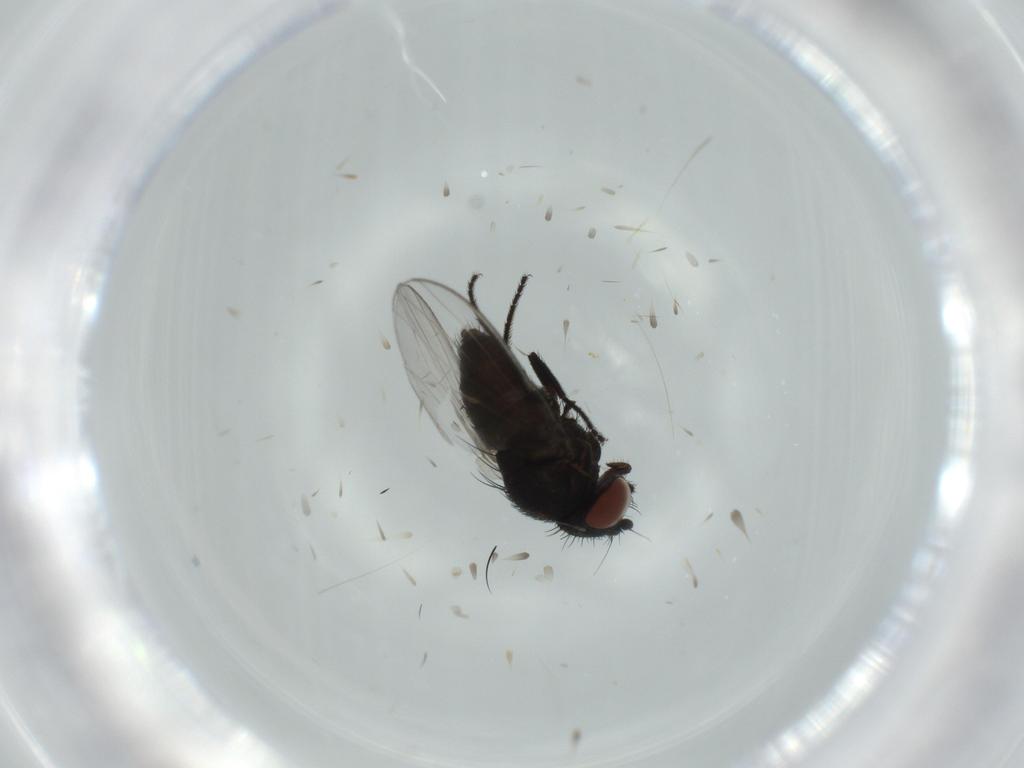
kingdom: Animalia
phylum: Arthropoda
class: Insecta
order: Diptera
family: Milichiidae
